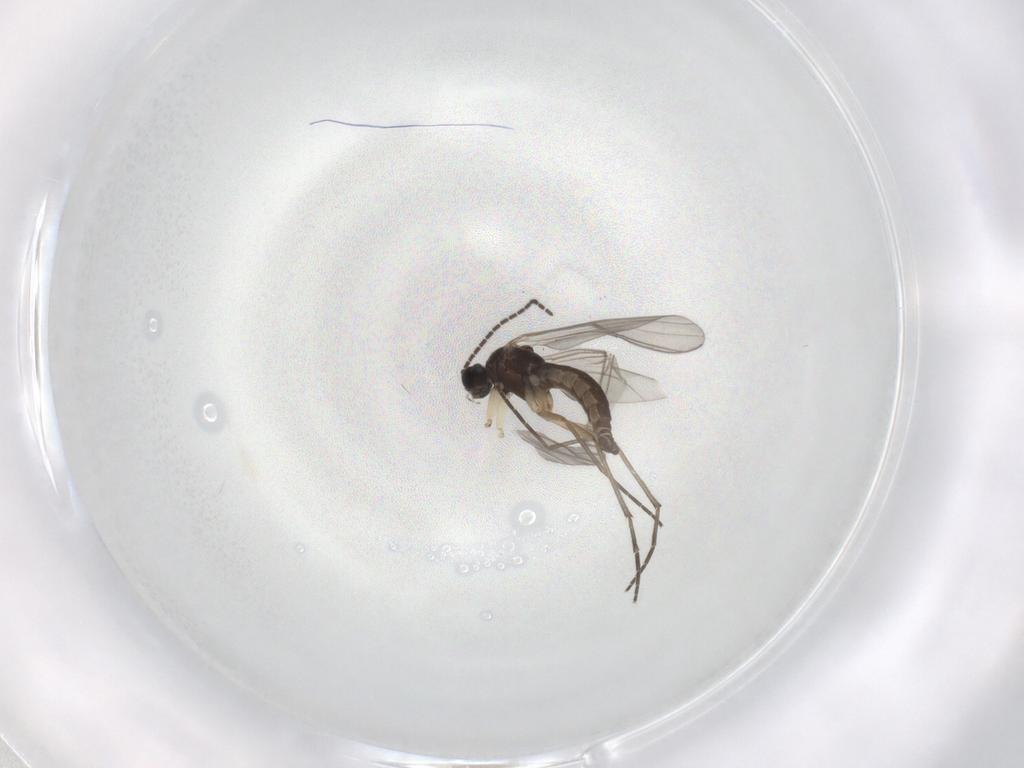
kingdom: Animalia
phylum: Arthropoda
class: Insecta
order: Diptera
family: Sciaridae
